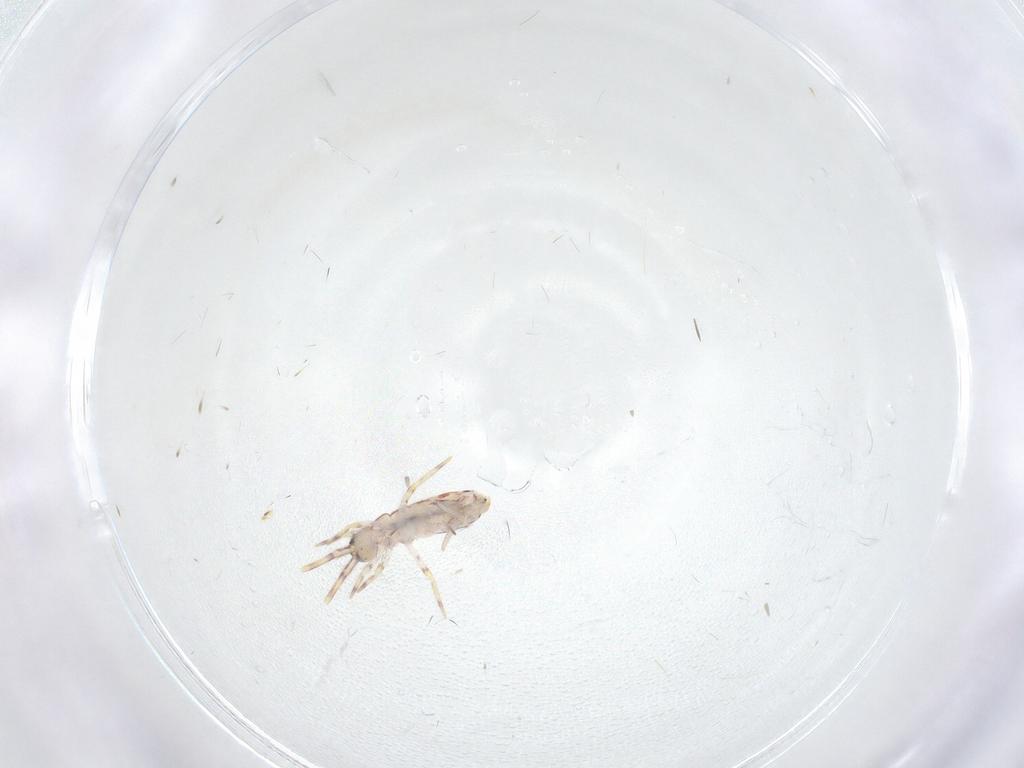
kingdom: Animalia
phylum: Arthropoda
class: Collembola
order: Entomobryomorpha
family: Entomobryidae
